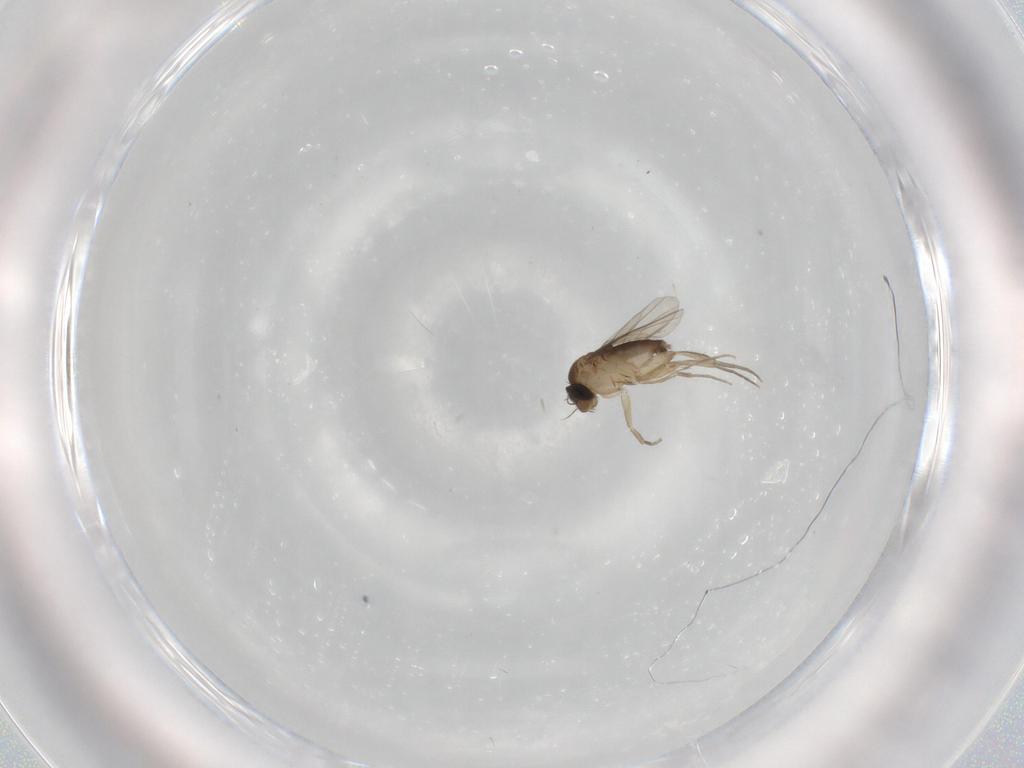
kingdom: Animalia
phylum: Arthropoda
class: Insecta
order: Diptera
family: Phoridae
